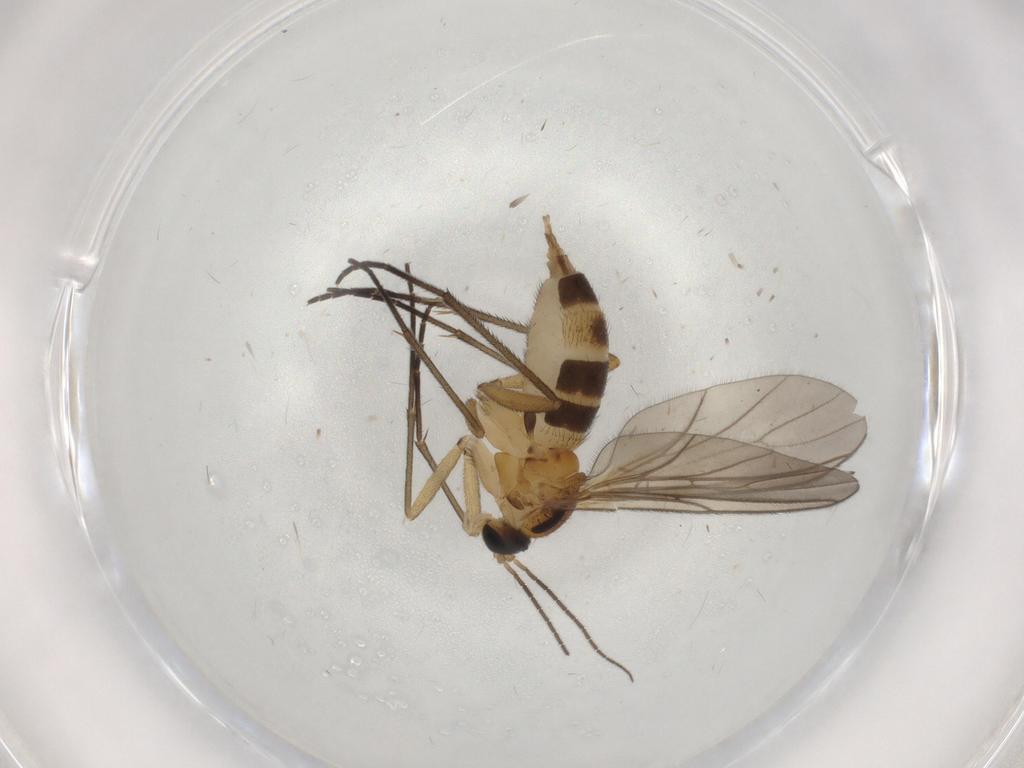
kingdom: Animalia
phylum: Arthropoda
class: Insecta
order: Diptera
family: Sciaridae
